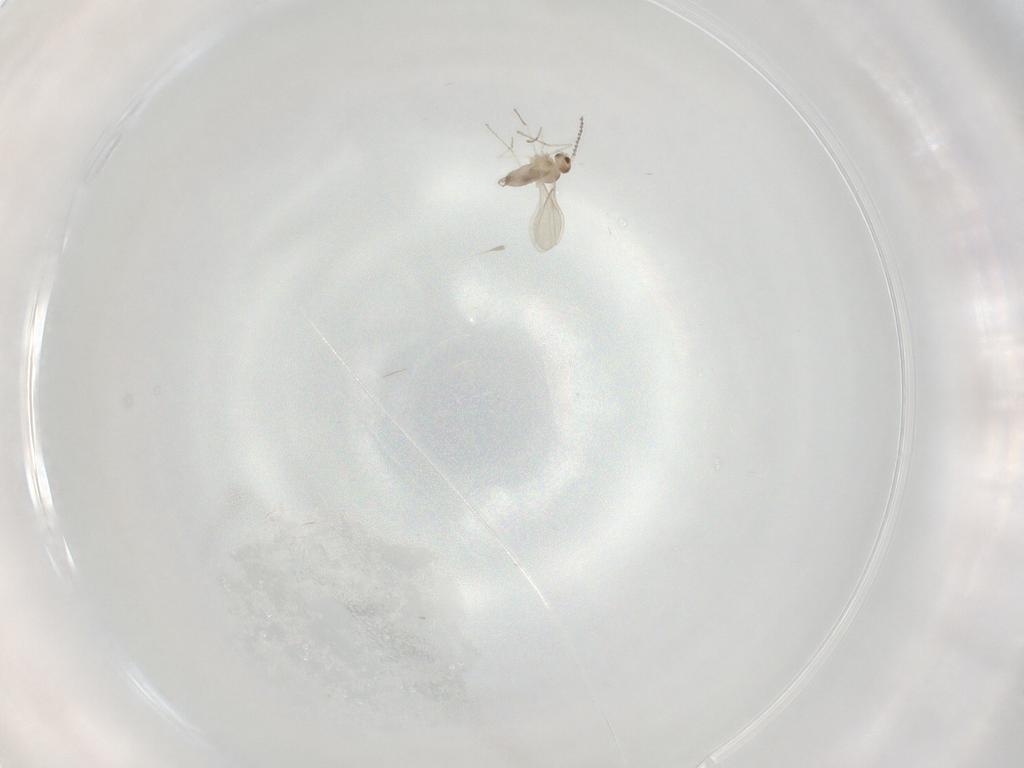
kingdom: Animalia
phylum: Arthropoda
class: Insecta
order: Diptera
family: Cecidomyiidae
